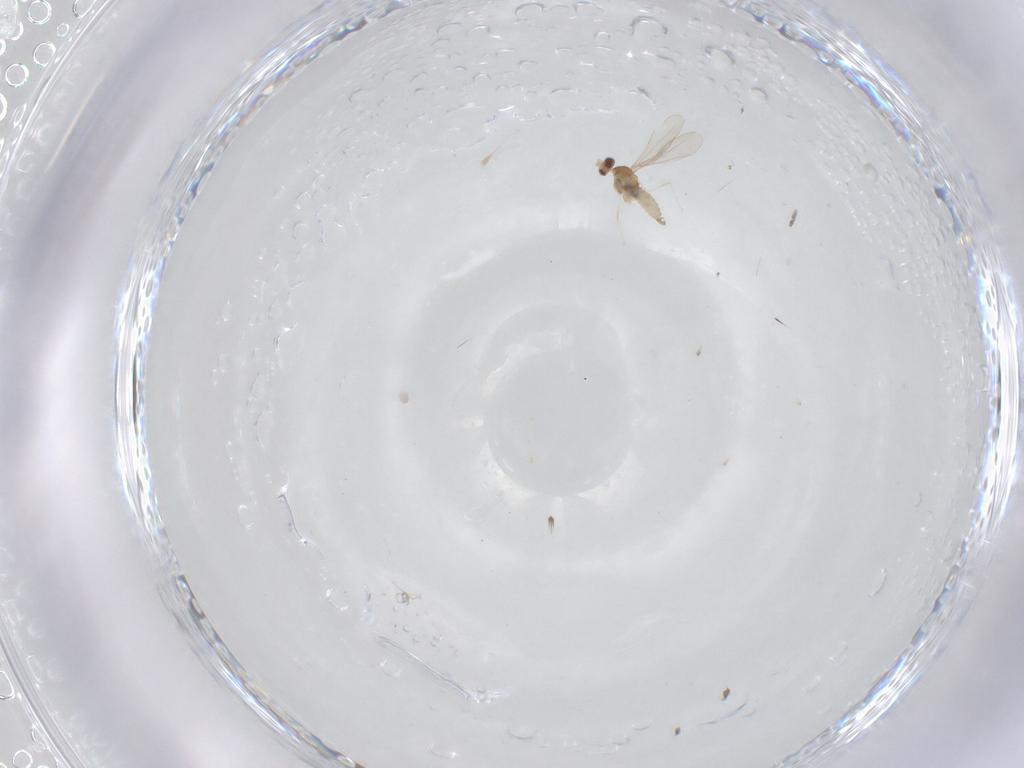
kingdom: Animalia
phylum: Arthropoda
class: Insecta
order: Diptera
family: Cecidomyiidae
